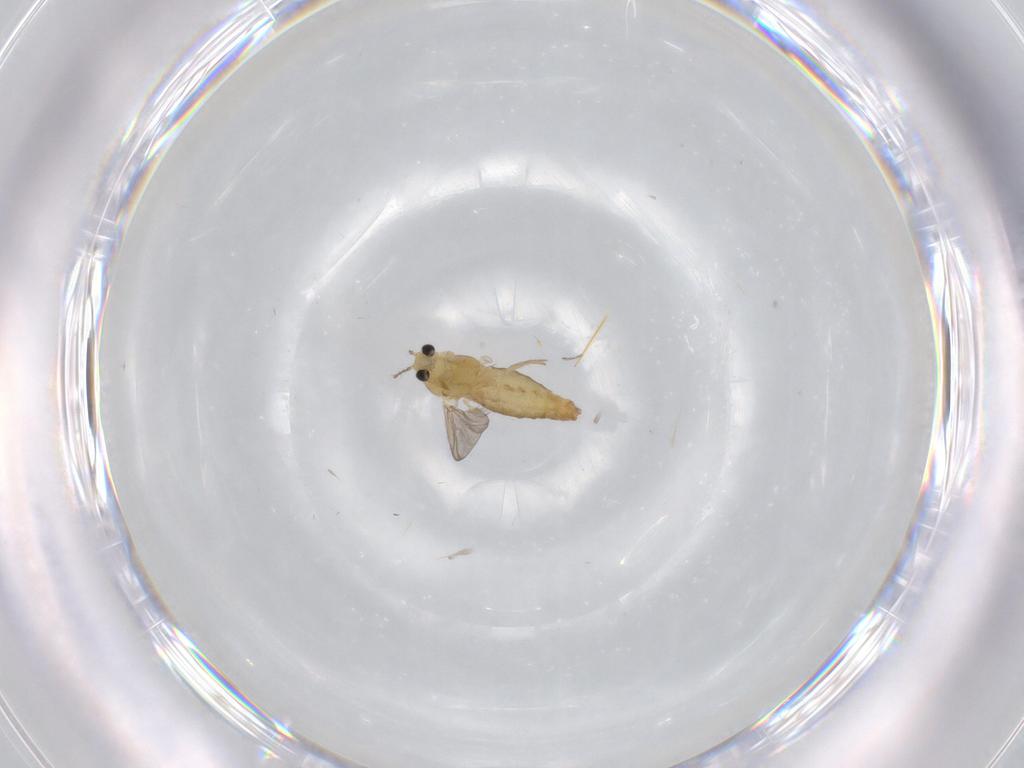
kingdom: Animalia
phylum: Arthropoda
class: Insecta
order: Diptera
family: Chironomidae
